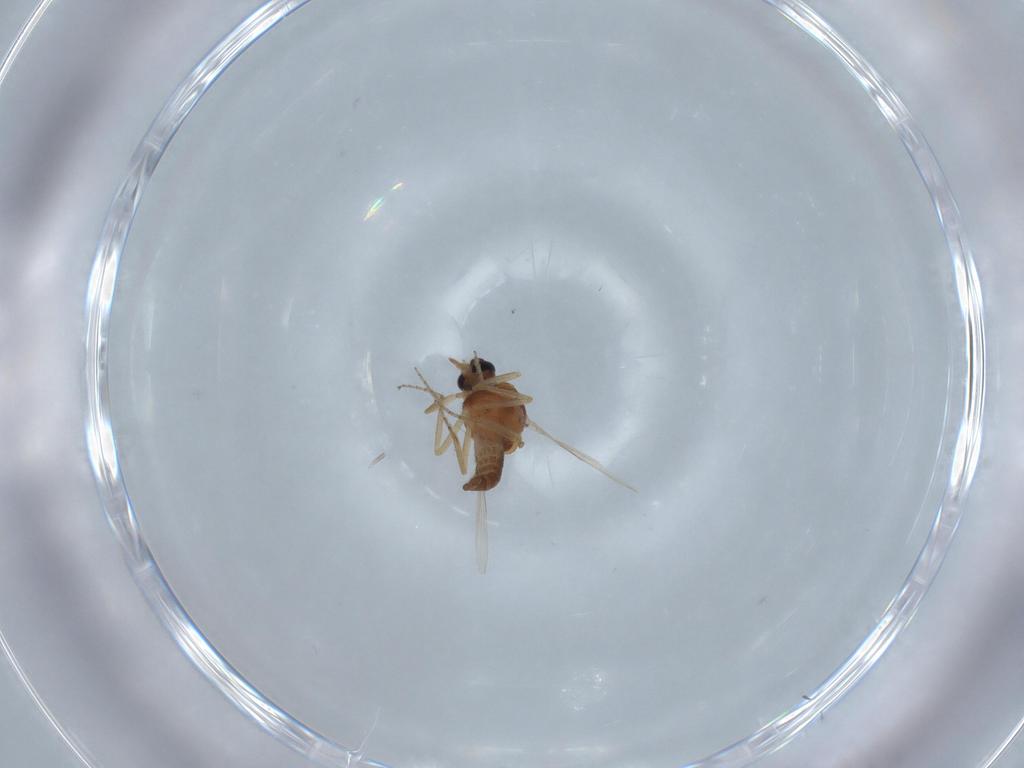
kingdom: Animalia
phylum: Arthropoda
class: Insecta
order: Diptera
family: Ceratopogonidae
